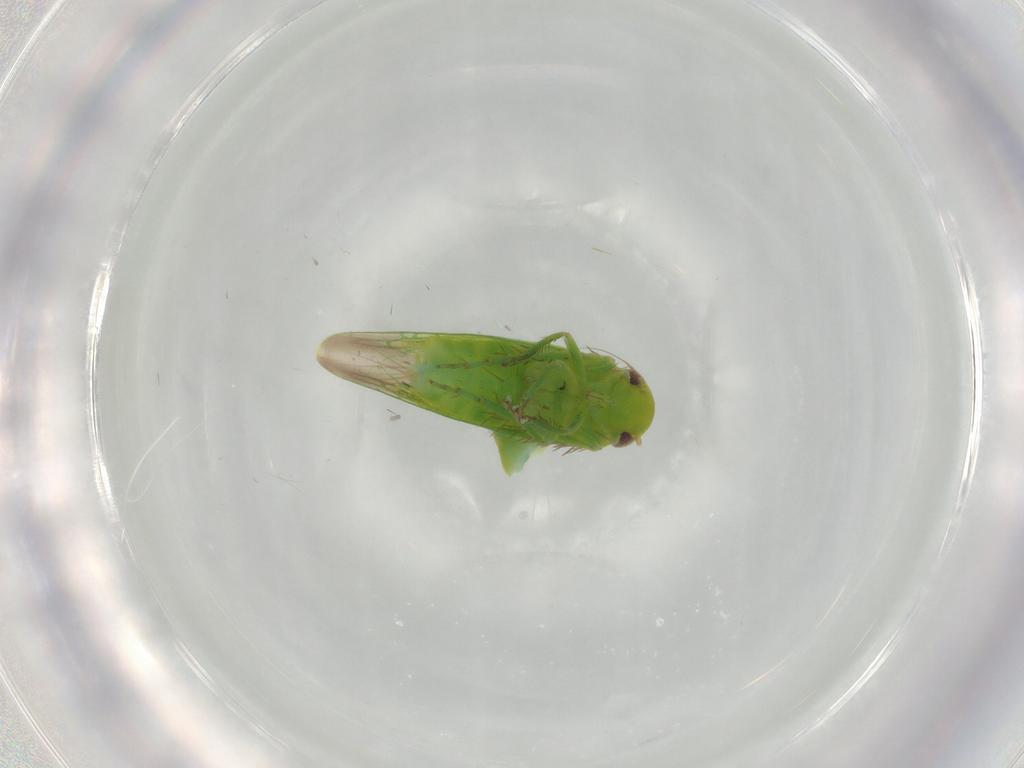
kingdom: Animalia
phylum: Arthropoda
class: Insecta
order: Hemiptera
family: Cicadellidae
